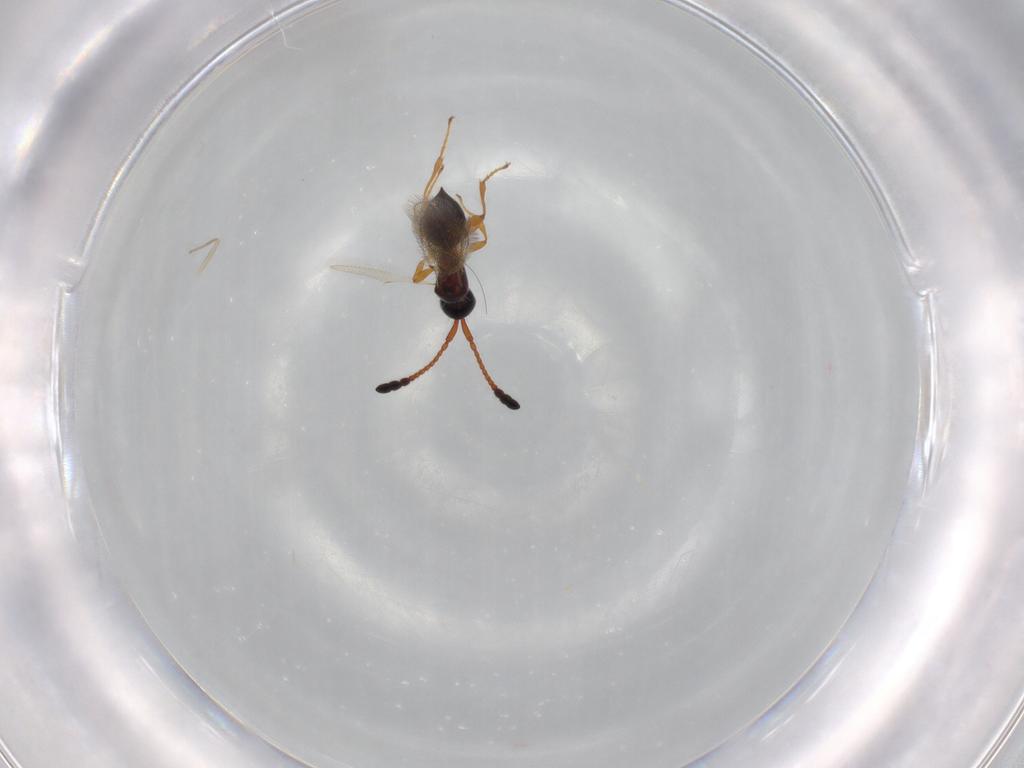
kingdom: Animalia
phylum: Arthropoda
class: Insecta
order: Hymenoptera
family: Diapriidae
